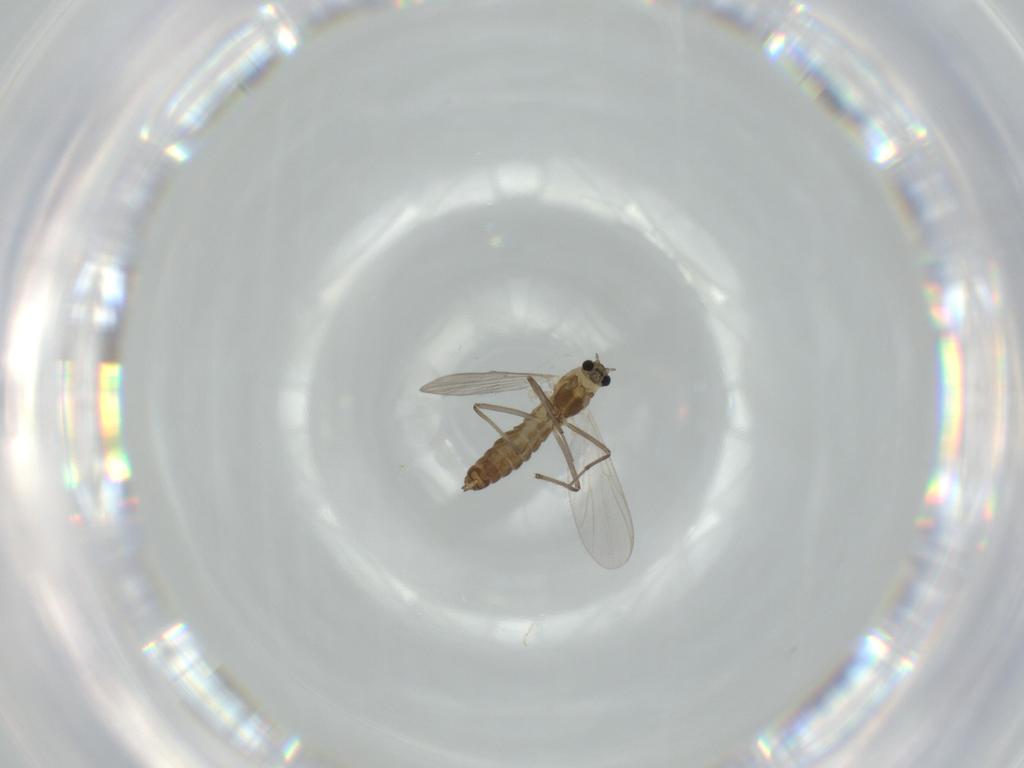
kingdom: Animalia
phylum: Arthropoda
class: Insecta
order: Diptera
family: Chironomidae
